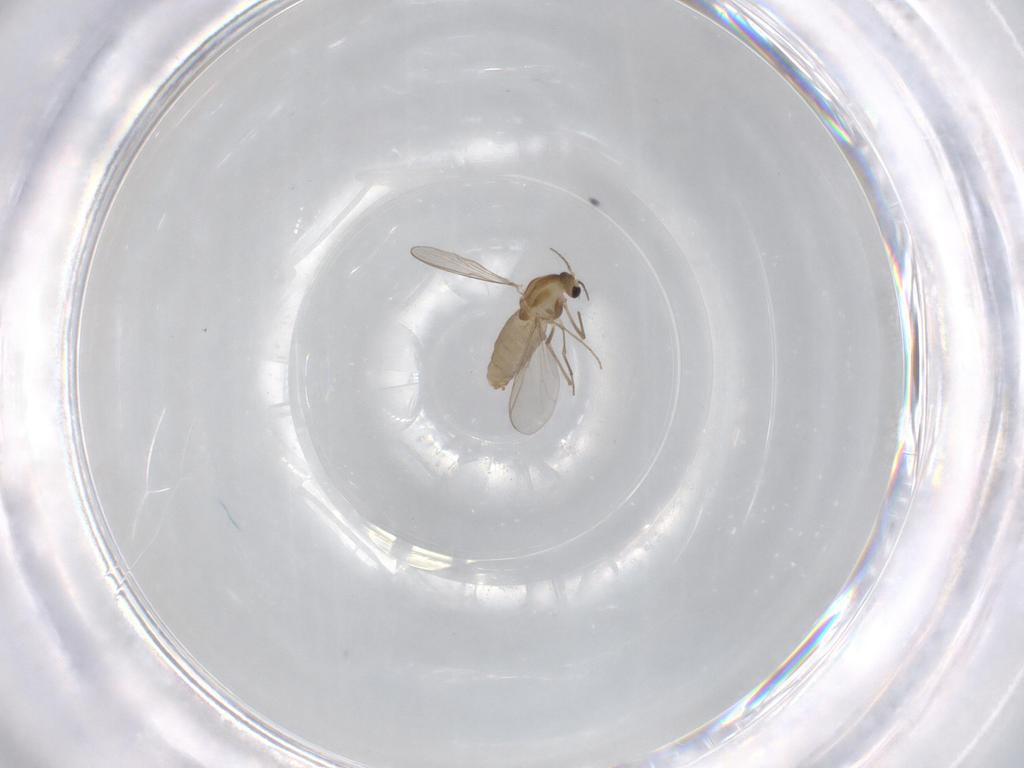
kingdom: Animalia
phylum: Arthropoda
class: Insecta
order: Diptera
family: Chironomidae
